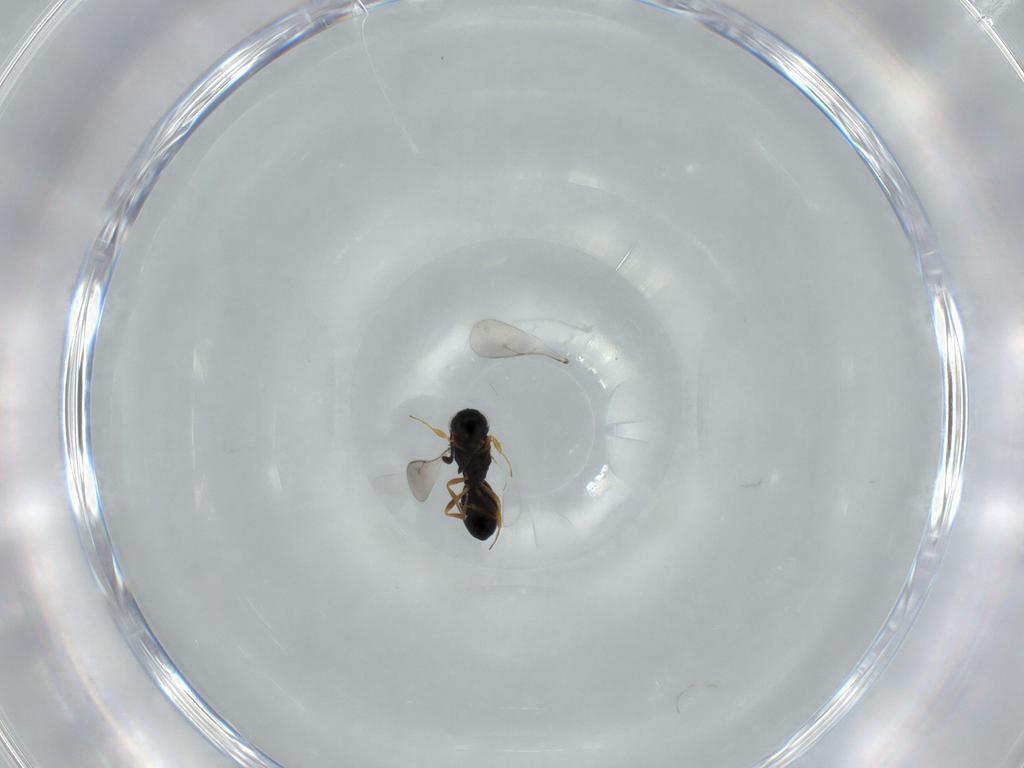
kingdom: Animalia
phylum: Arthropoda
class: Insecta
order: Hymenoptera
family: Scelionidae
